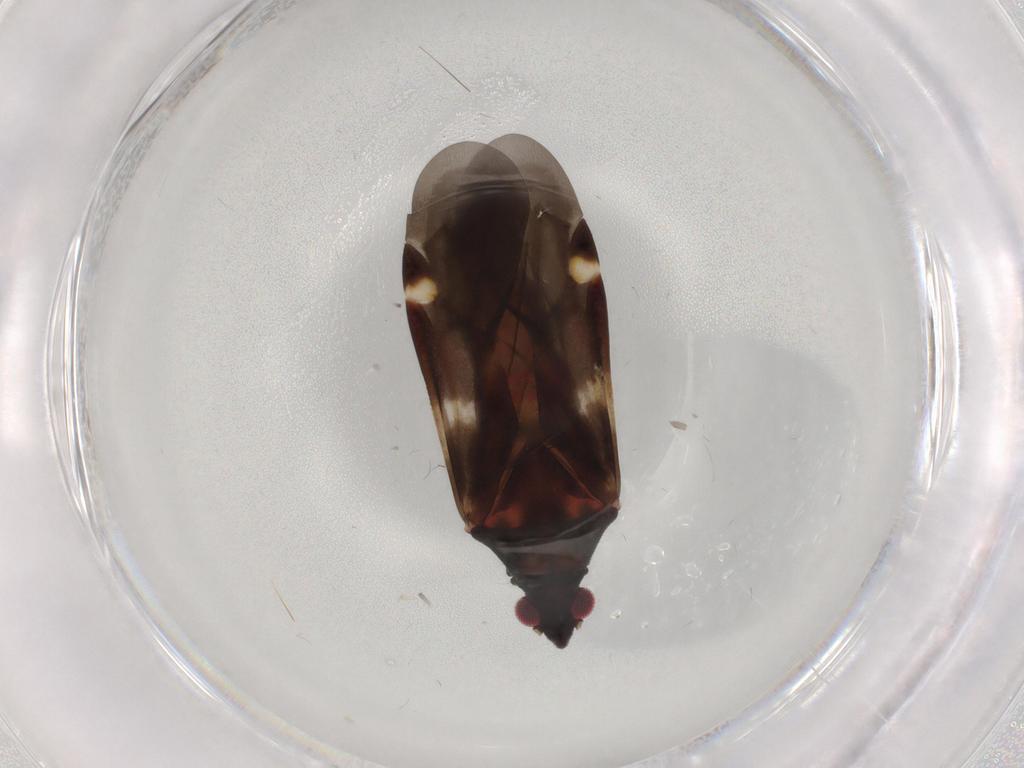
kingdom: Animalia
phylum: Arthropoda
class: Insecta
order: Hemiptera
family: Miridae
